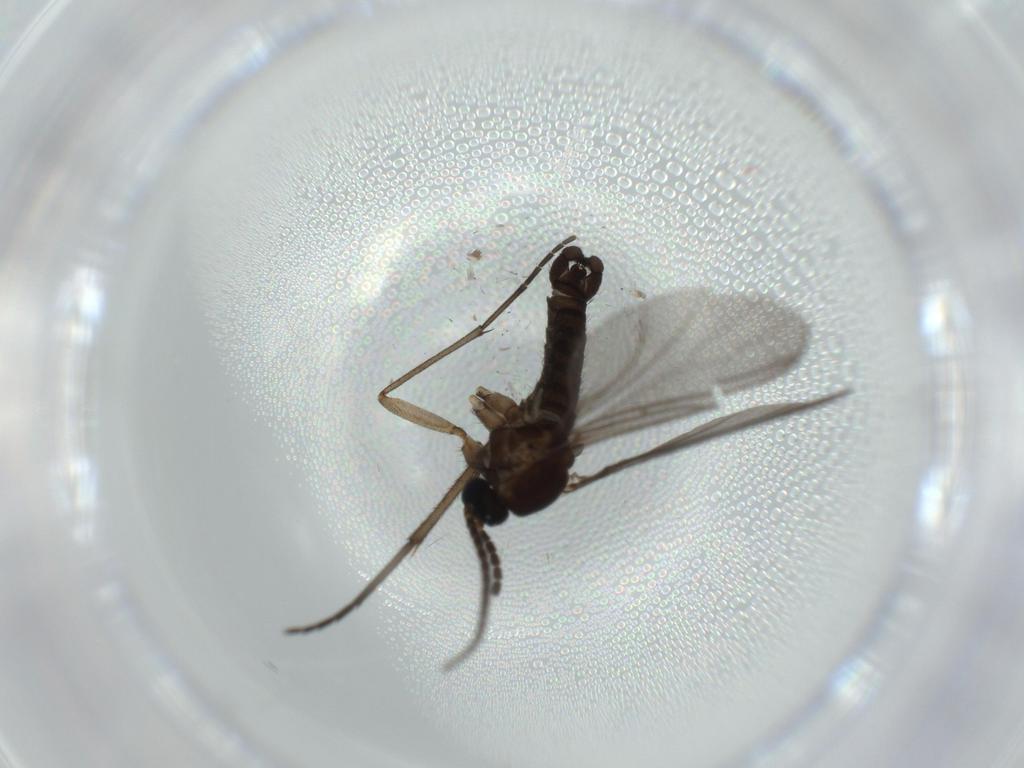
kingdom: Animalia
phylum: Arthropoda
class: Insecta
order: Diptera
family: Sciaridae
